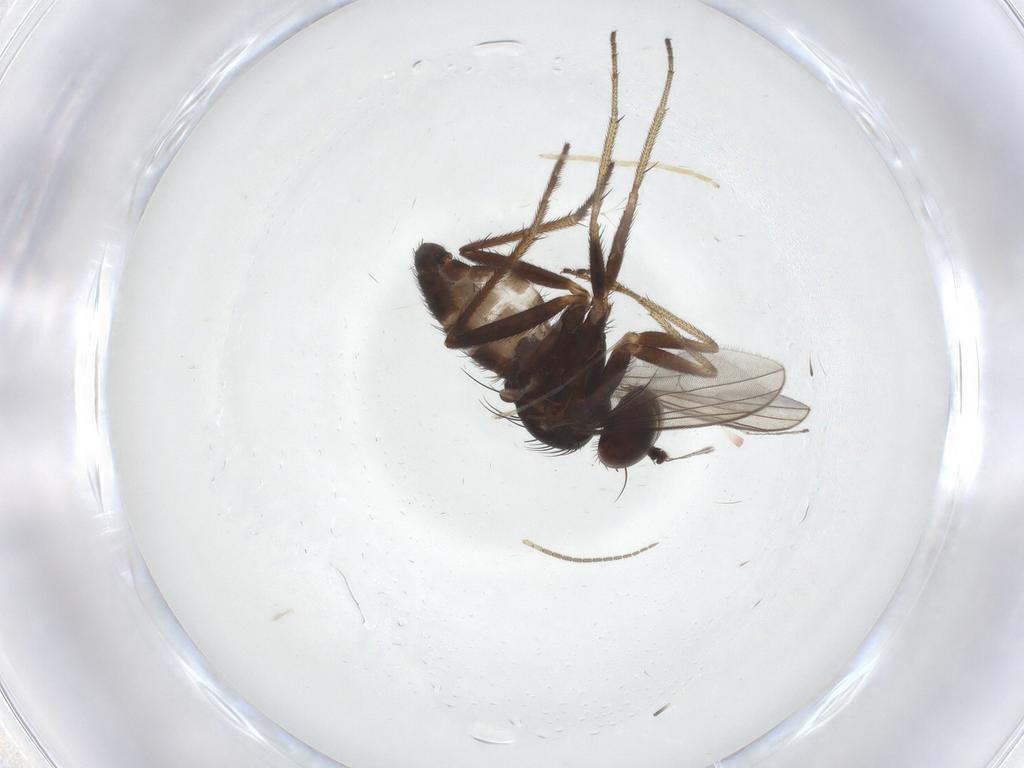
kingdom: Animalia
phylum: Arthropoda
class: Insecta
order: Diptera
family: Sciaridae
